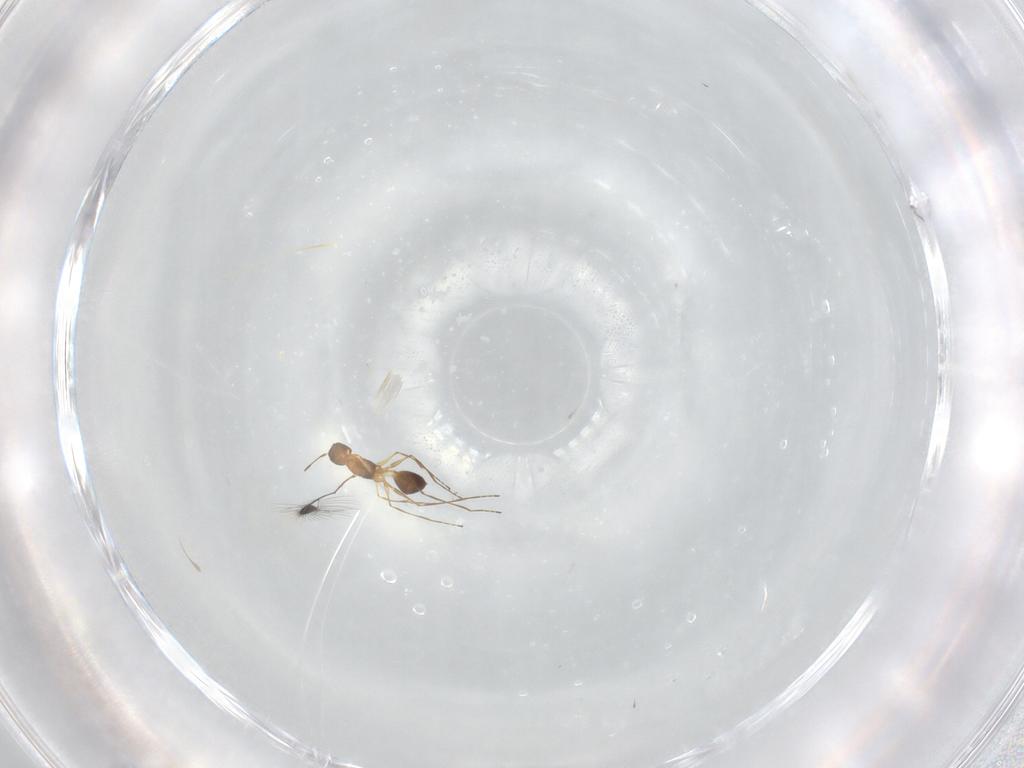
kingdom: Animalia
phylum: Arthropoda
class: Insecta
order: Hymenoptera
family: Mymaridae
